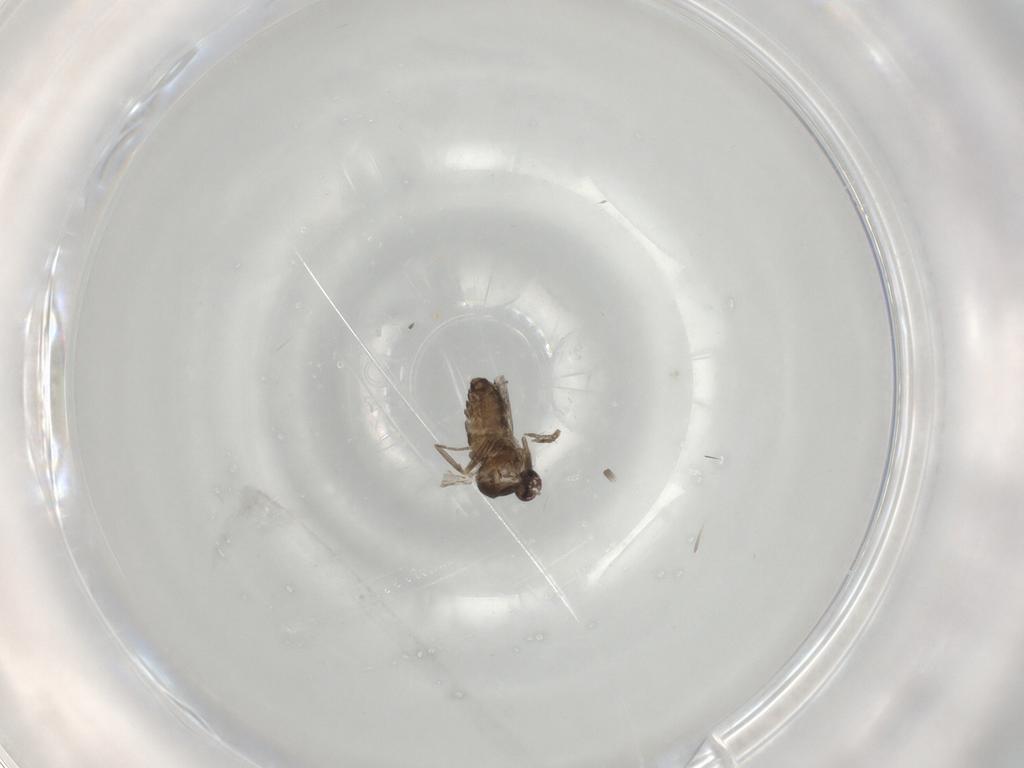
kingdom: Animalia
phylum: Arthropoda
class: Insecta
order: Diptera
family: Ceratopogonidae
